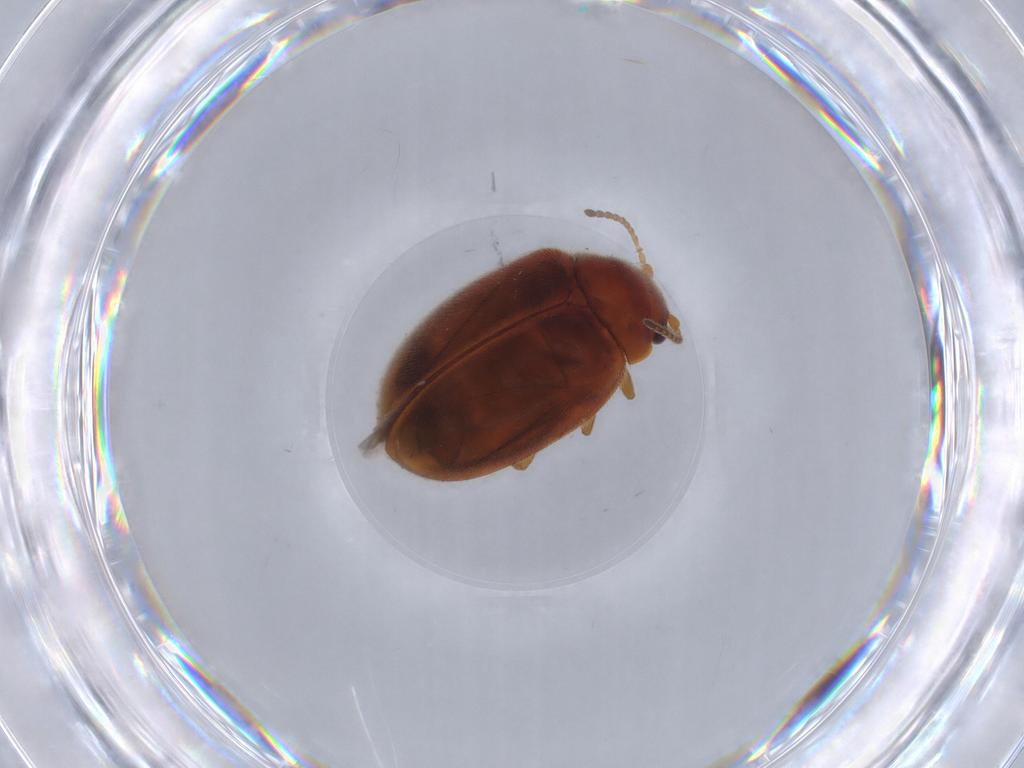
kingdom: Animalia
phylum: Arthropoda
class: Insecta
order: Coleoptera
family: Scirtidae
